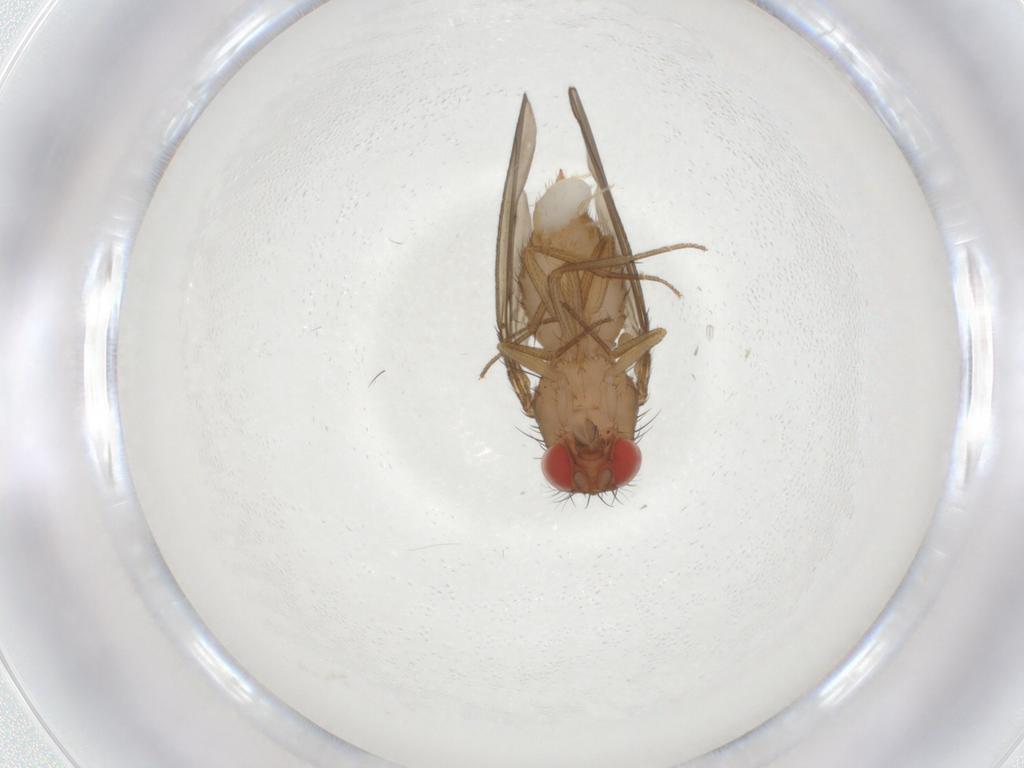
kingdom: Animalia
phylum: Arthropoda
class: Insecta
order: Diptera
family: Drosophilidae
